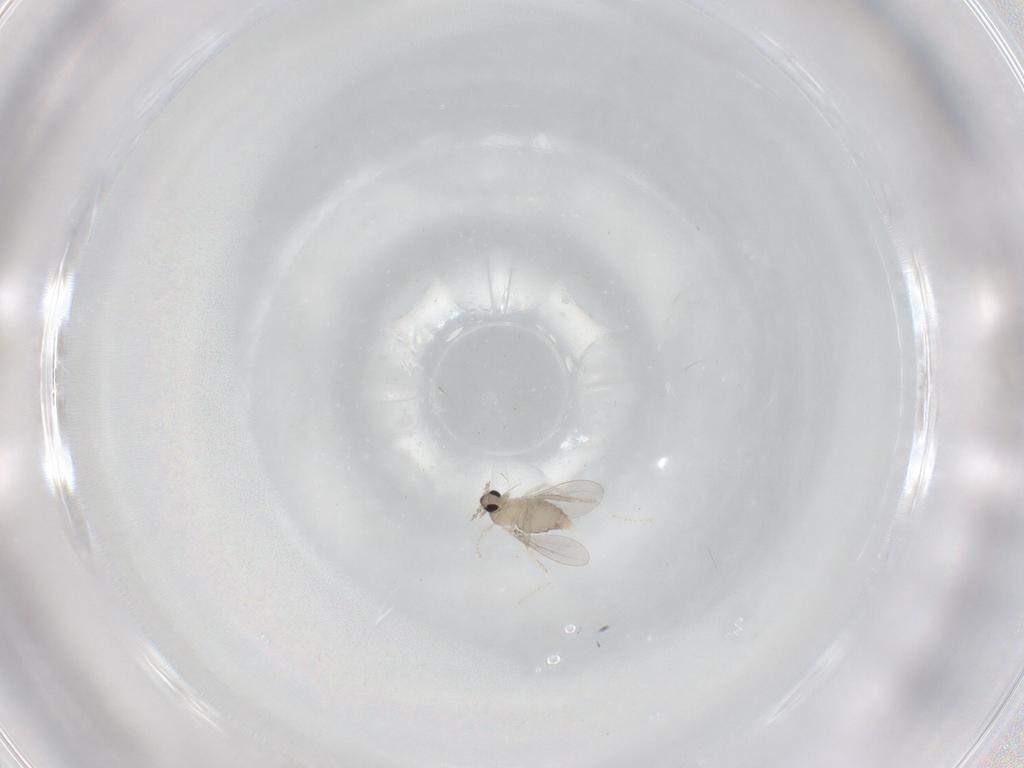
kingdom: Animalia
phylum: Arthropoda
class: Insecta
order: Diptera
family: Cecidomyiidae
